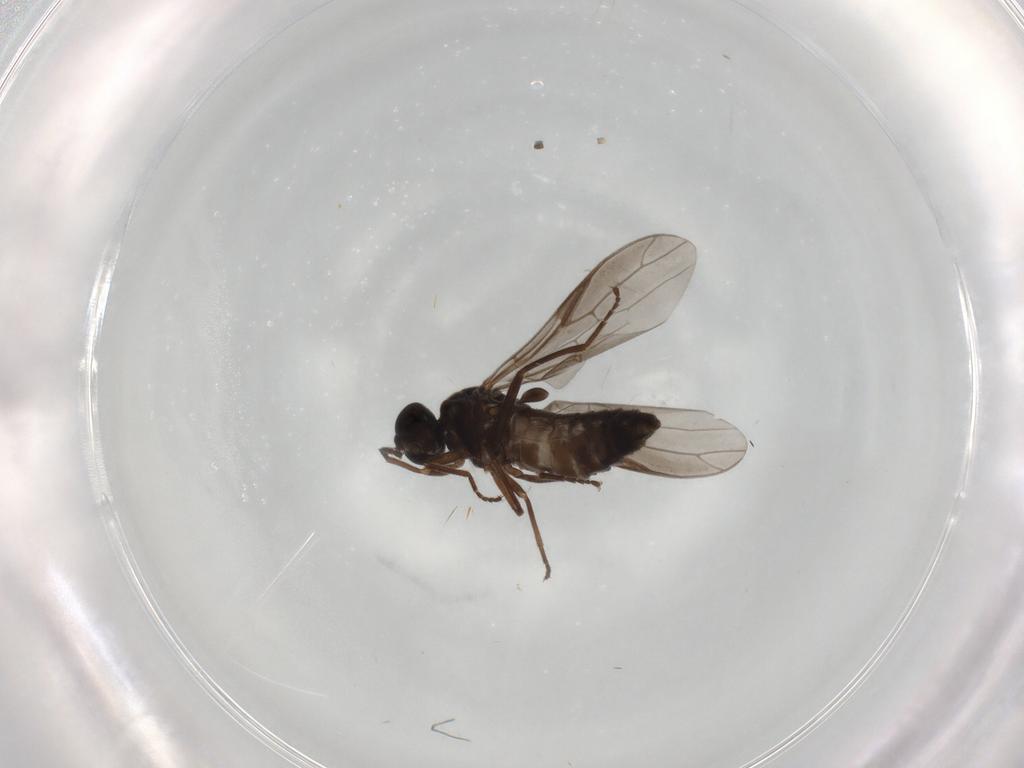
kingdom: Animalia
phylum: Arthropoda
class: Insecta
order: Diptera
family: Scenopinidae
